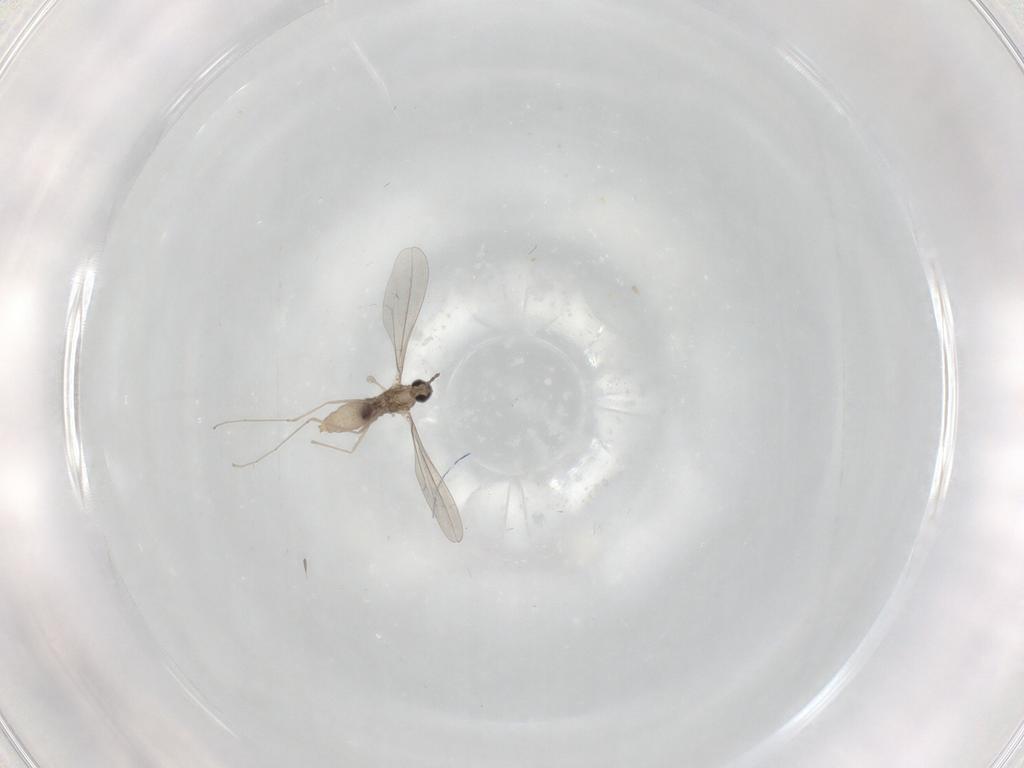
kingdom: Animalia
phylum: Arthropoda
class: Insecta
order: Diptera
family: Cecidomyiidae
